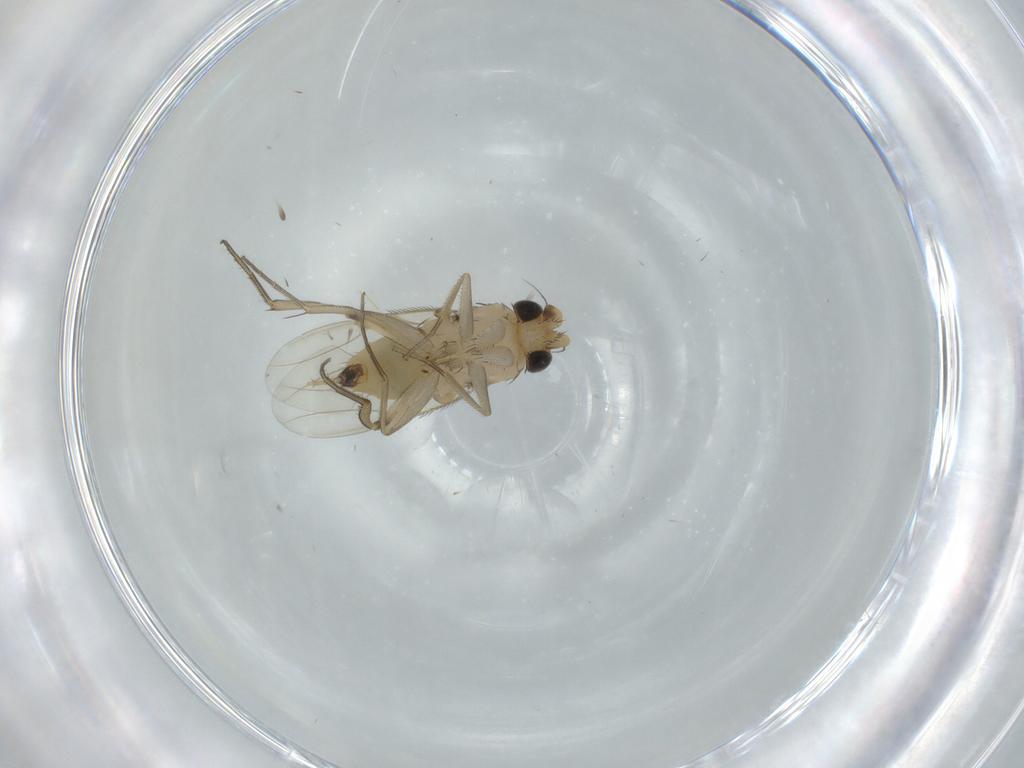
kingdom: Animalia
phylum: Arthropoda
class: Insecta
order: Diptera
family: Phoridae
